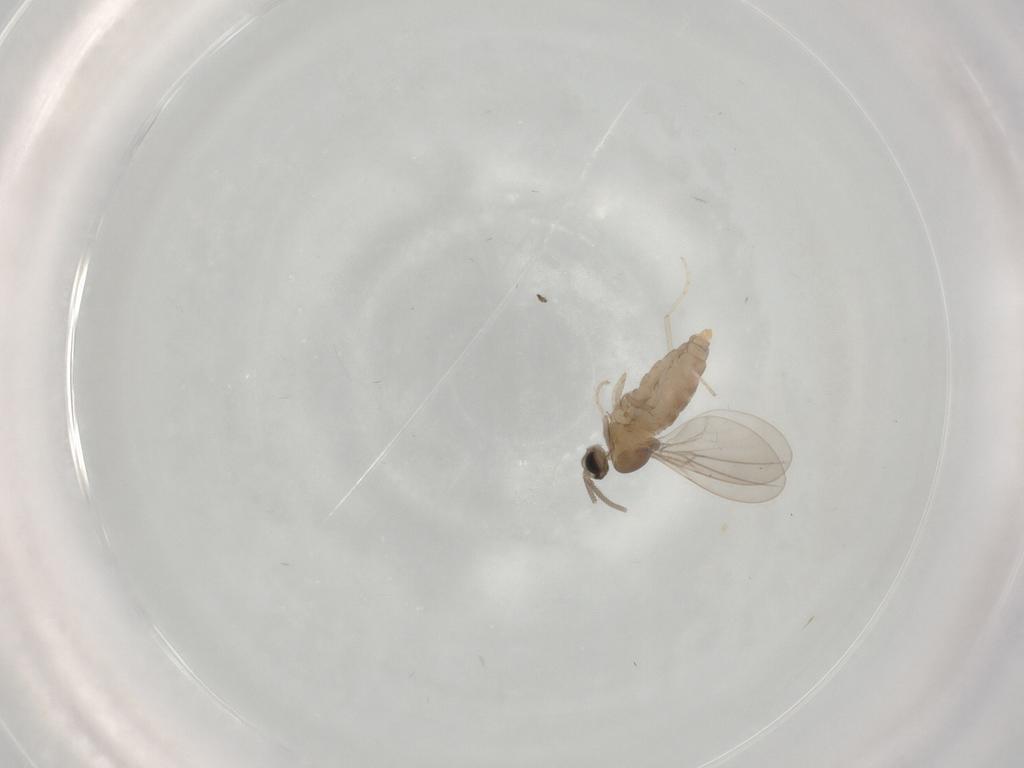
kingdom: Animalia
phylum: Arthropoda
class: Insecta
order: Diptera
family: Cecidomyiidae
